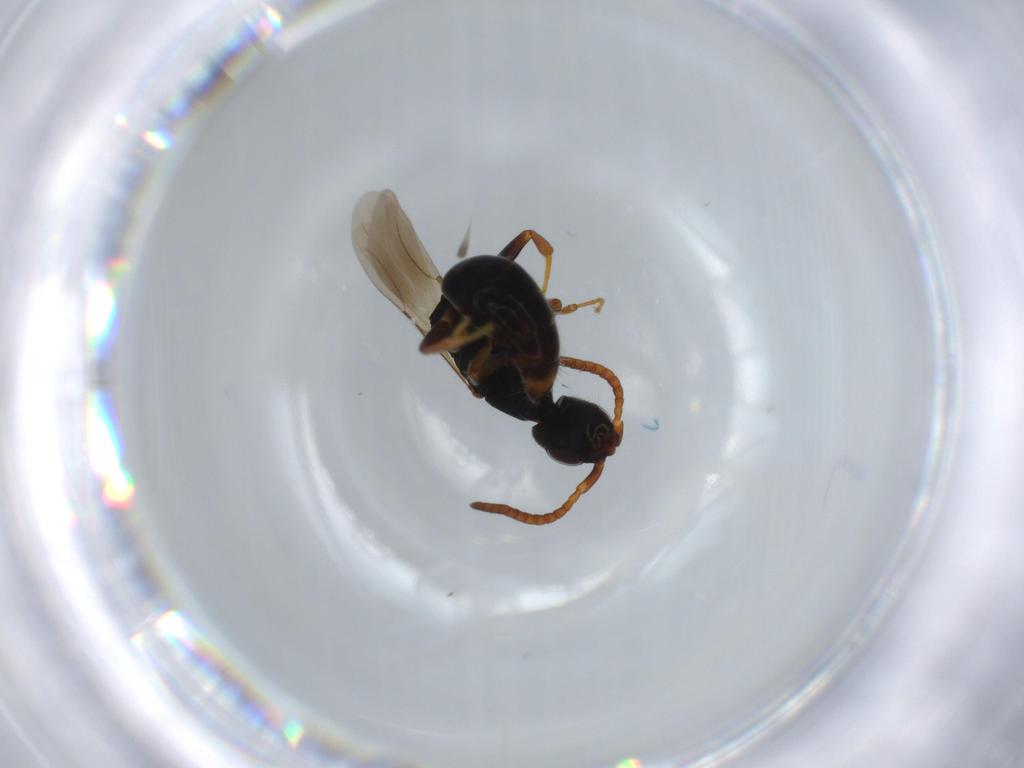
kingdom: Animalia
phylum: Arthropoda
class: Insecta
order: Hymenoptera
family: Bethylidae
